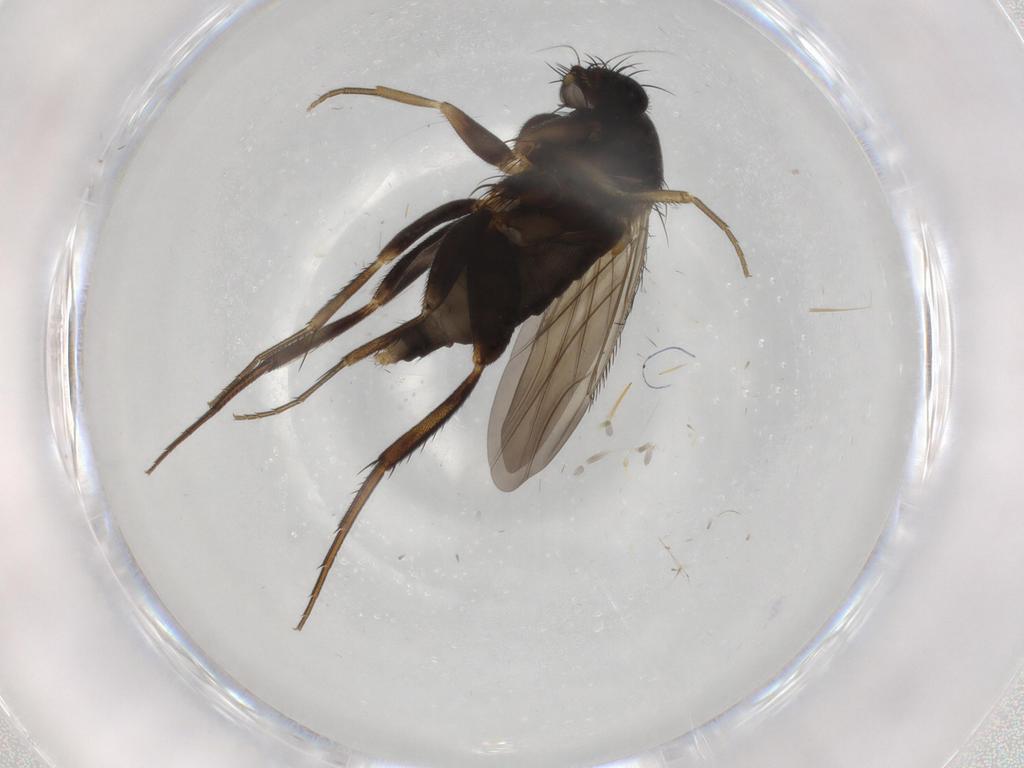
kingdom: Animalia
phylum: Arthropoda
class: Insecta
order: Diptera
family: Phoridae
